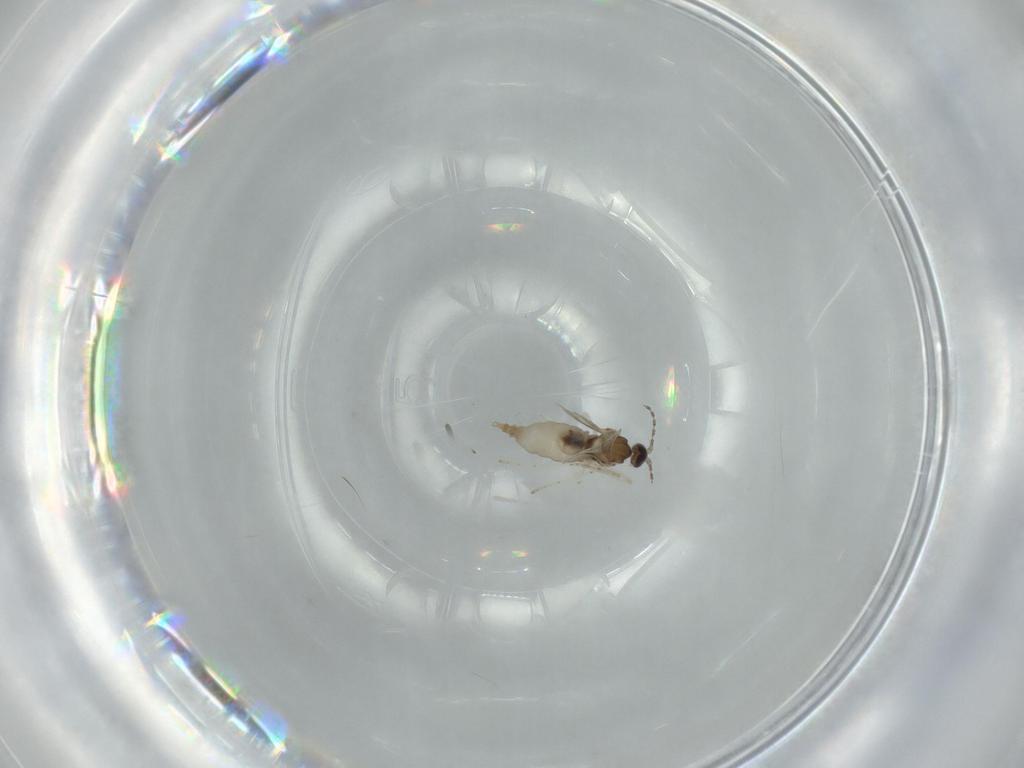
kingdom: Animalia
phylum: Arthropoda
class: Insecta
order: Diptera
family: Cecidomyiidae
